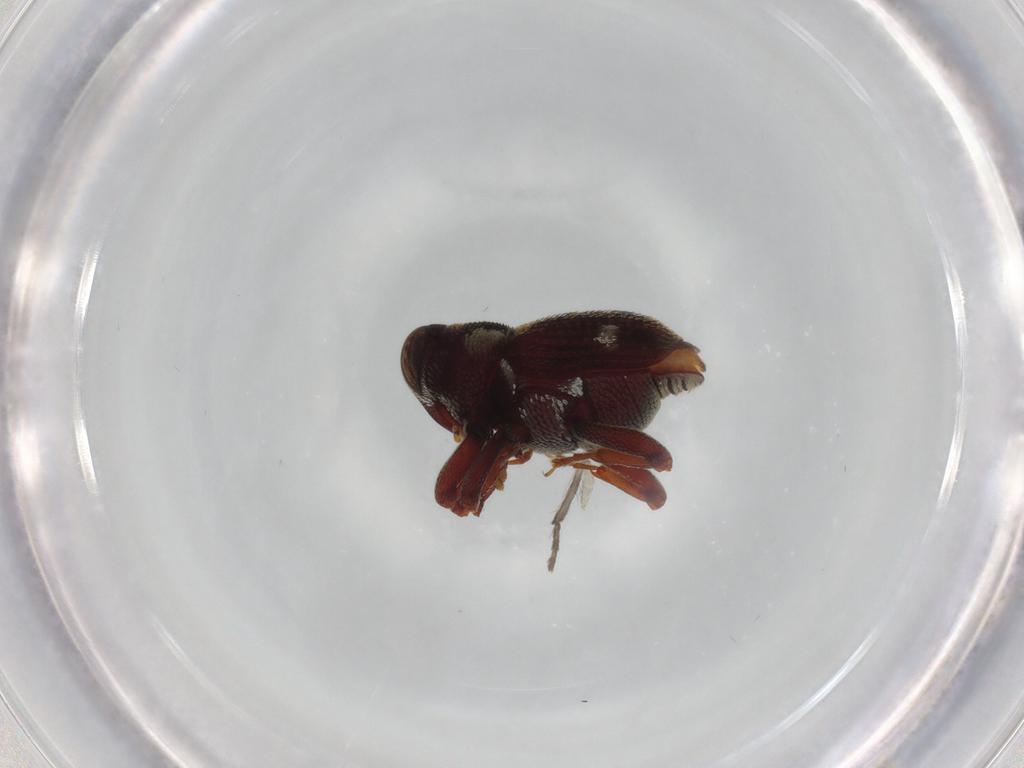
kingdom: Animalia
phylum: Arthropoda
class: Insecta
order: Coleoptera
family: Curculionidae
